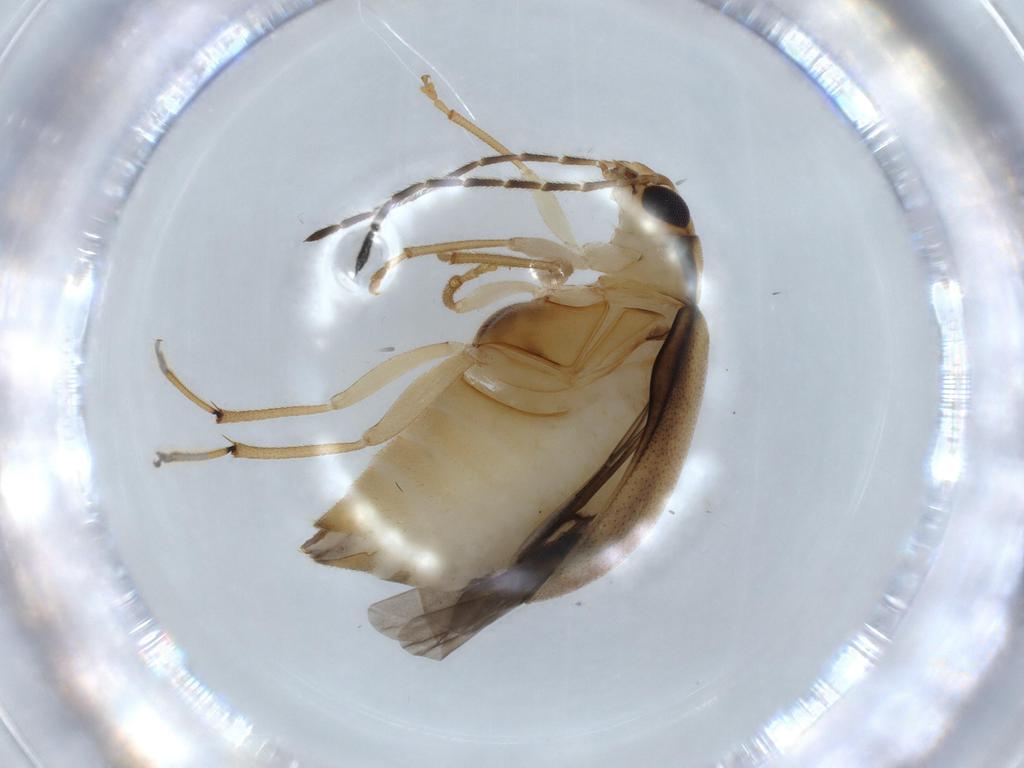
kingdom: Animalia
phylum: Arthropoda
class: Insecta
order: Coleoptera
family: Chrysomelidae
